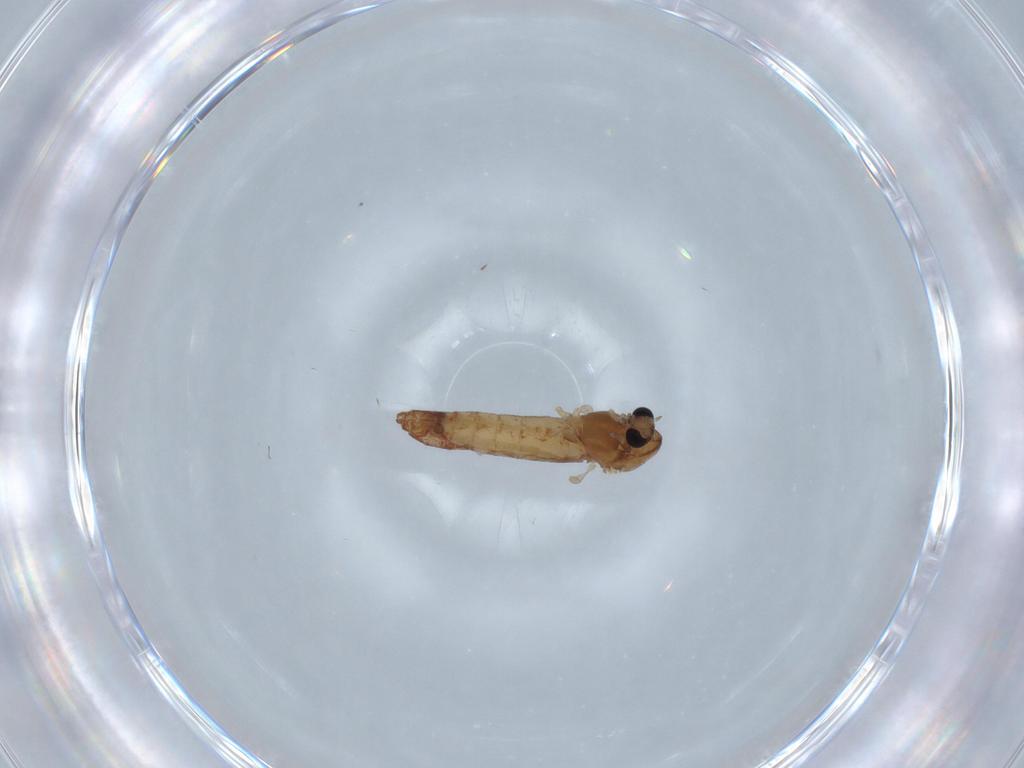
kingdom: Animalia
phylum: Arthropoda
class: Insecta
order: Diptera
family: Chironomidae
